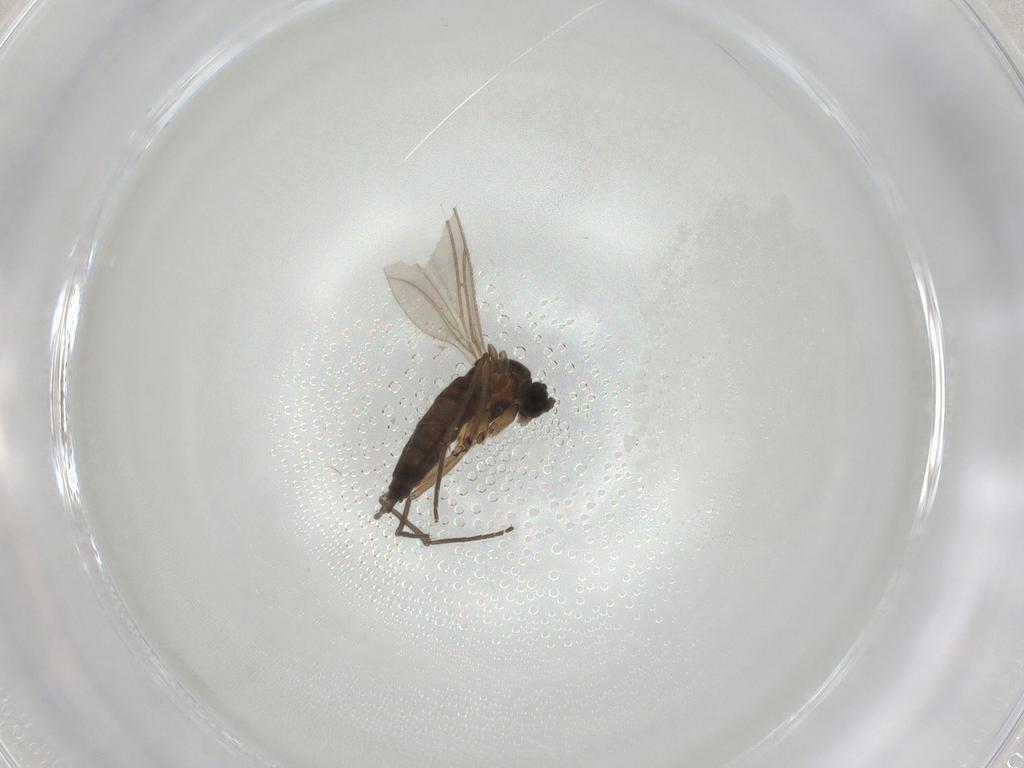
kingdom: Animalia
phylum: Arthropoda
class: Insecta
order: Diptera
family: Sciaridae
